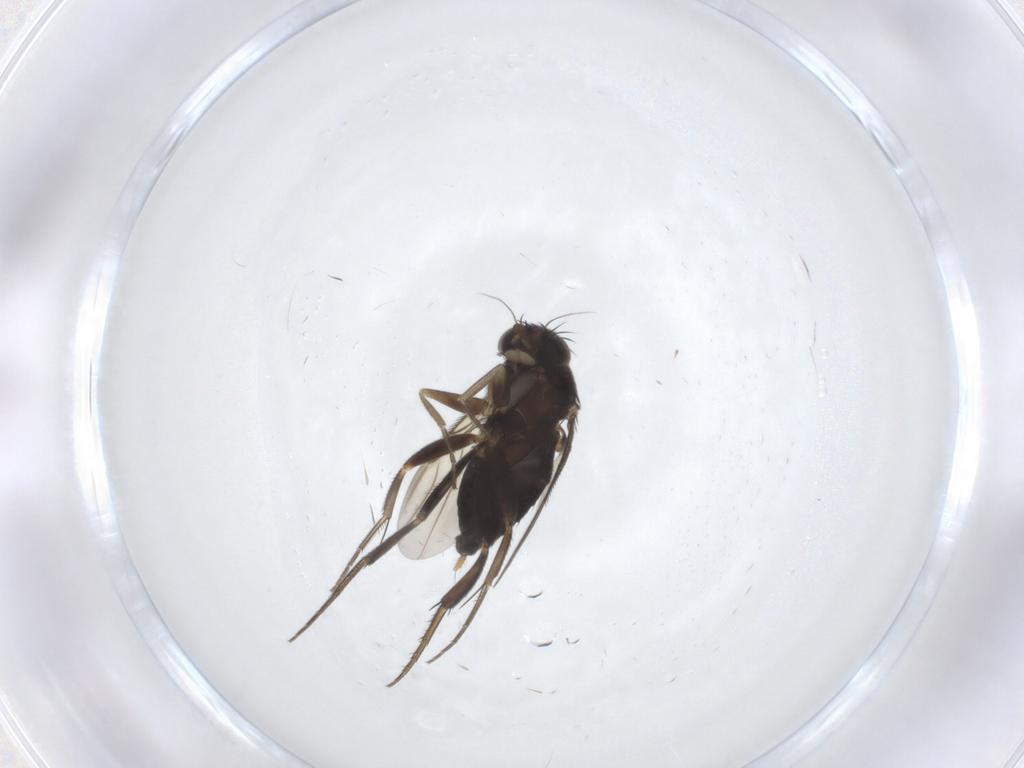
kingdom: Animalia
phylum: Arthropoda
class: Insecta
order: Diptera
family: Phoridae
